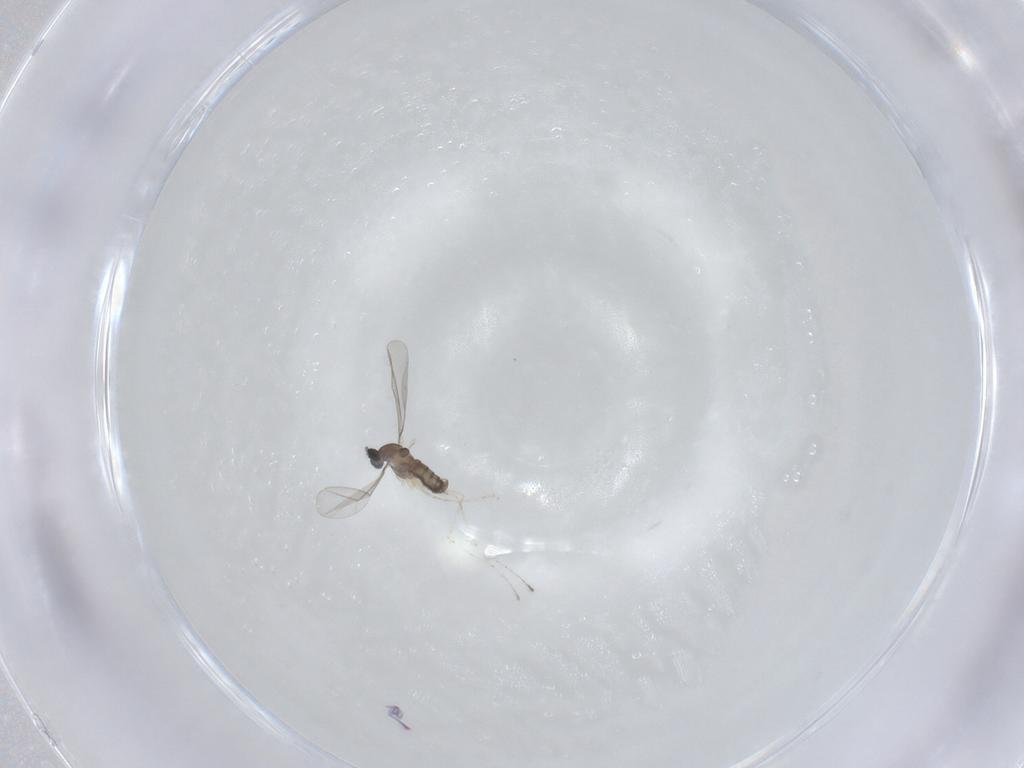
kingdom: Animalia
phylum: Arthropoda
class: Insecta
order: Diptera
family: Cecidomyiidae
